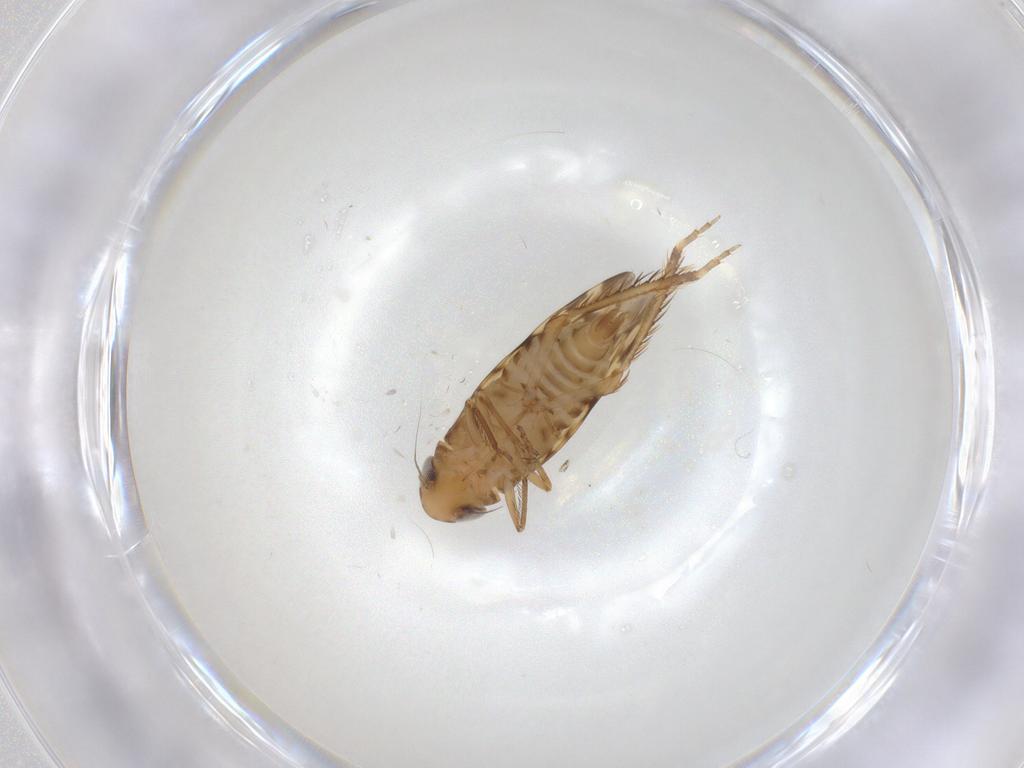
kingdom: Animalia
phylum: Arthropoda
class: Insecta
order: Hemiptera
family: Cicadellidae
